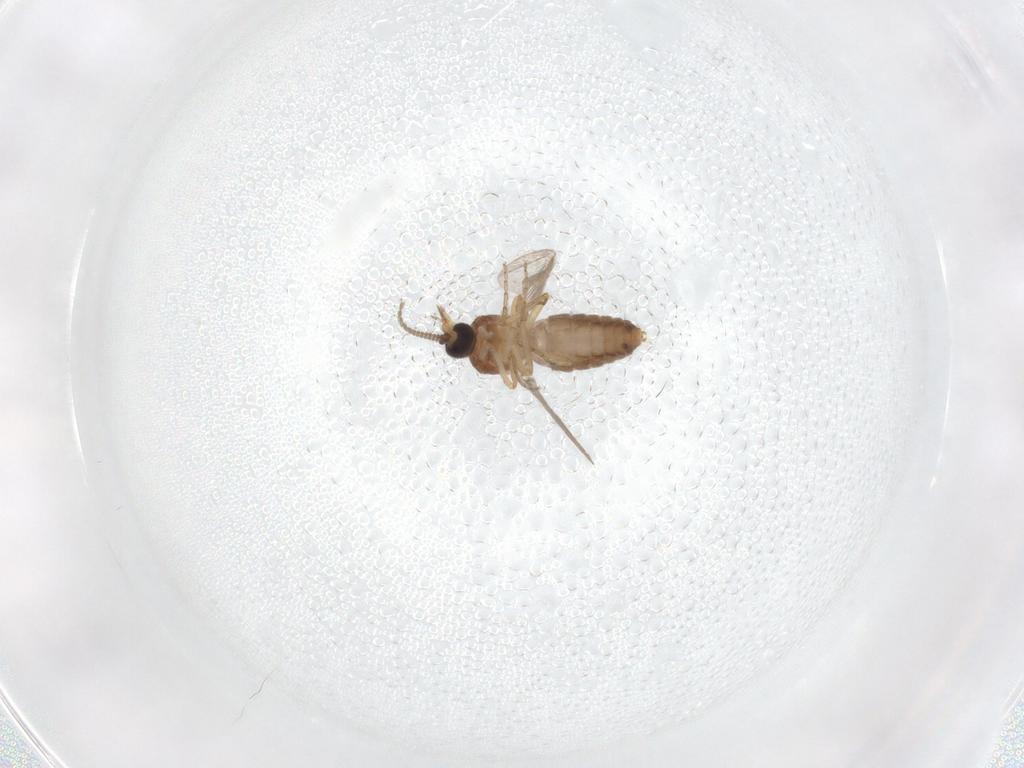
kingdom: Animalia
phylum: Arthropoda
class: Insecta
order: Diptera
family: Ceratopogonidae
